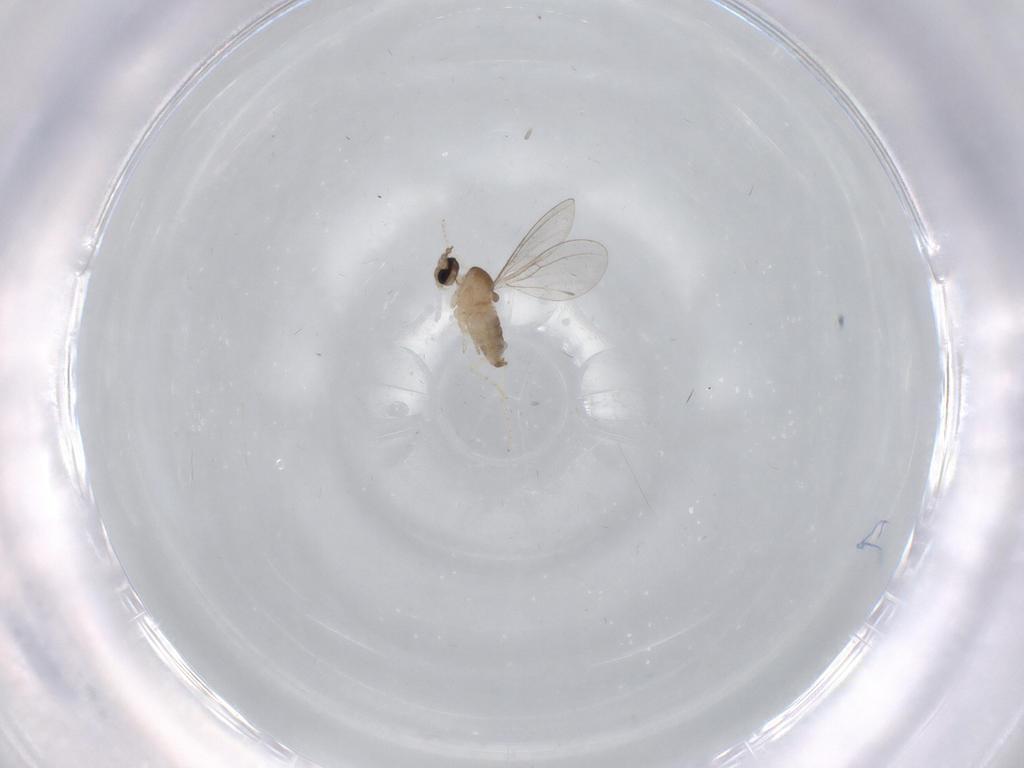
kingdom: Animalia
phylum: Arthropoda
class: Insecta
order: Diptera
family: Cecidomyiidae
